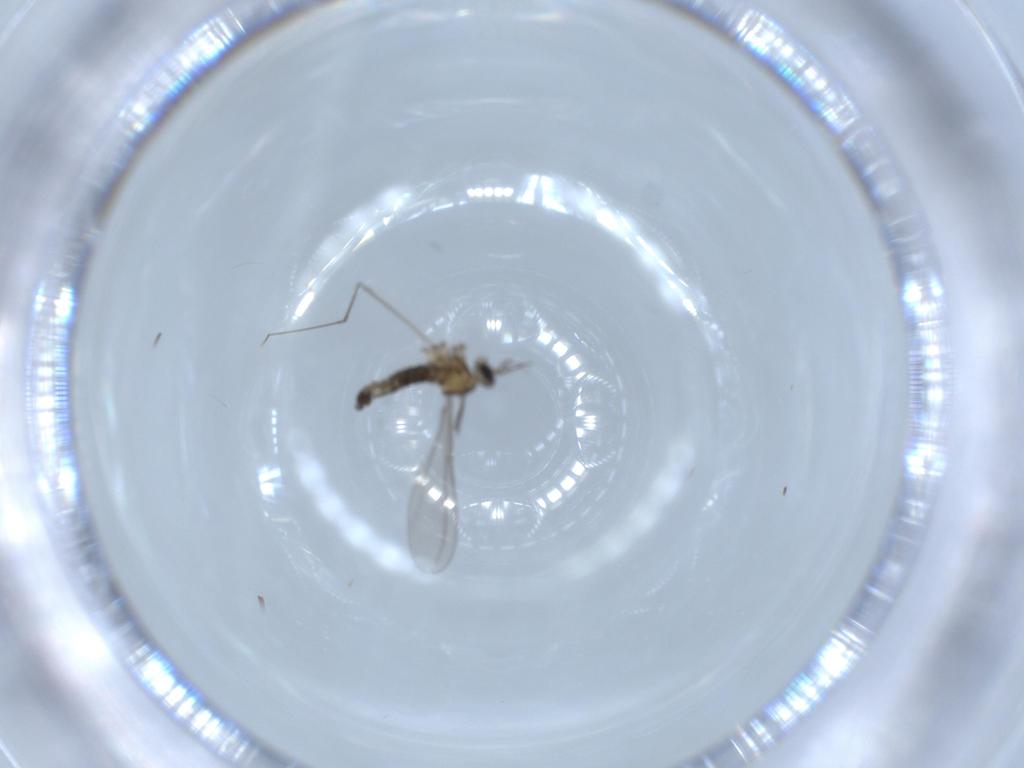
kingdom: Animalia
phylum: Arthropoda
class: Insecta
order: Diptera
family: Cecidomyiidae
